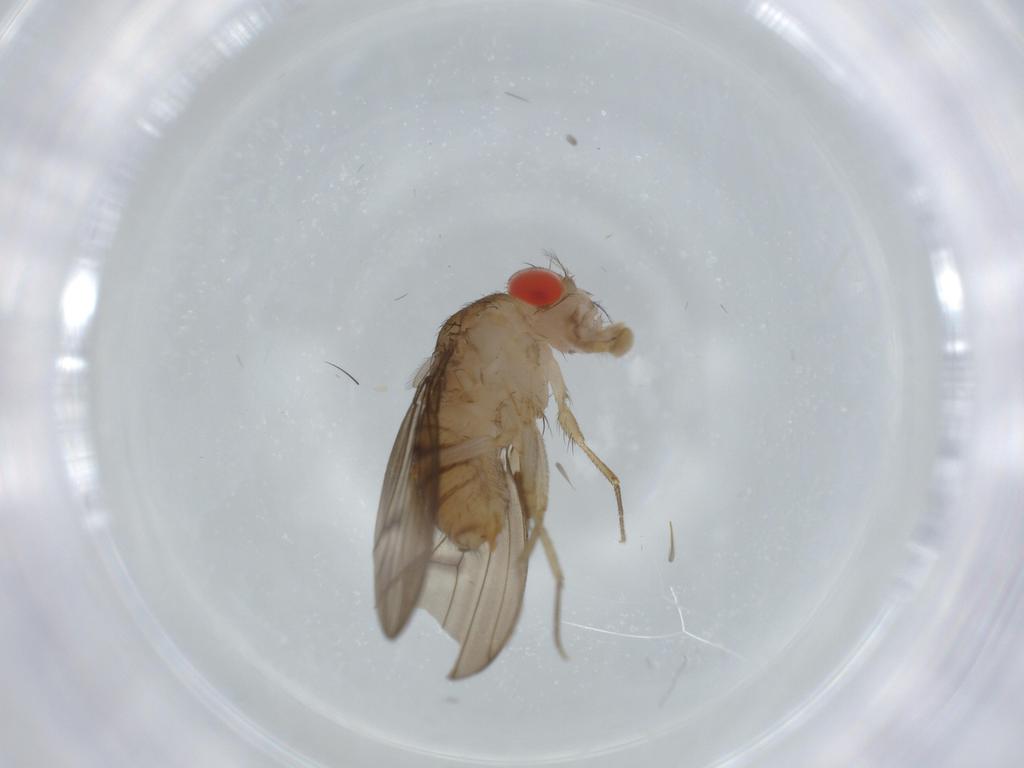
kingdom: Animalia
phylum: Arthropoda
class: Insecta
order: Diptera
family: Drosophilidae
